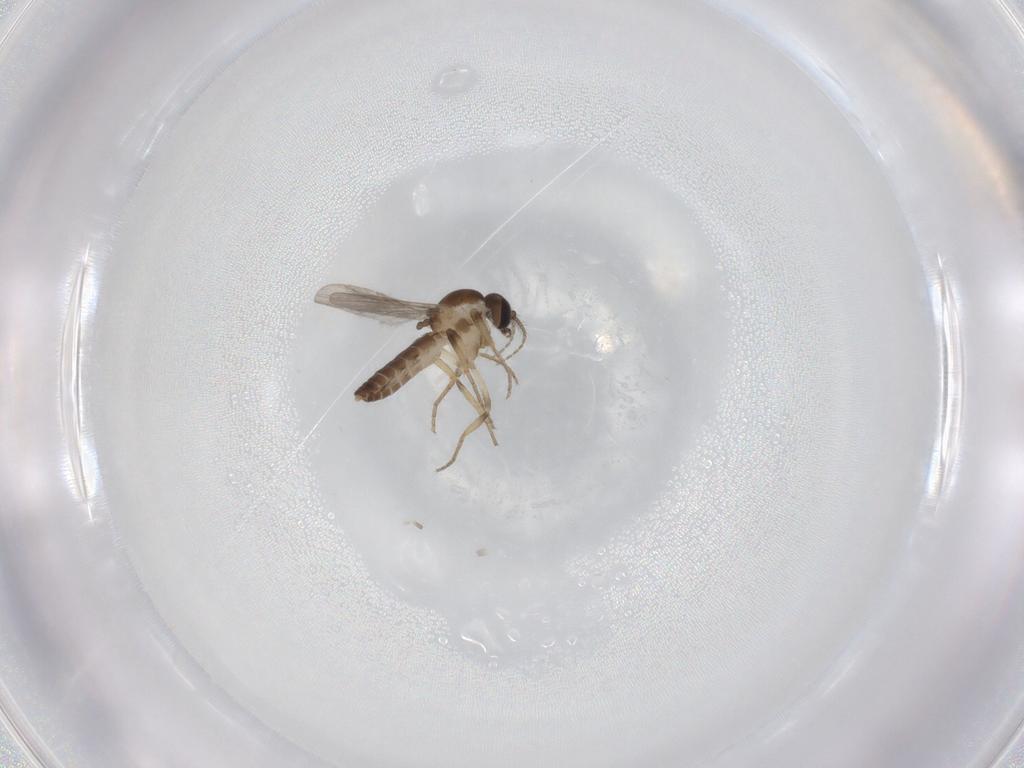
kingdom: Animalia
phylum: Arthropoda
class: Insecta
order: Diptera
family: Ceratopogonidae
